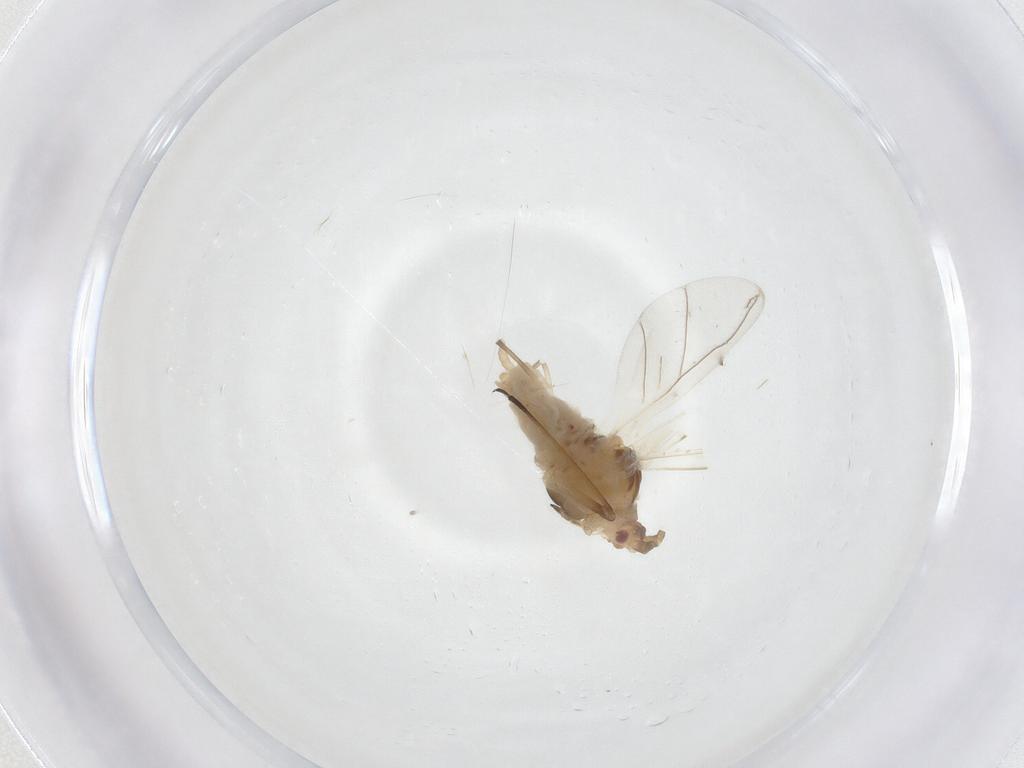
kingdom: Animalia
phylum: Arthropoda
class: Insecta
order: Hemiptera
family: Aphididae
